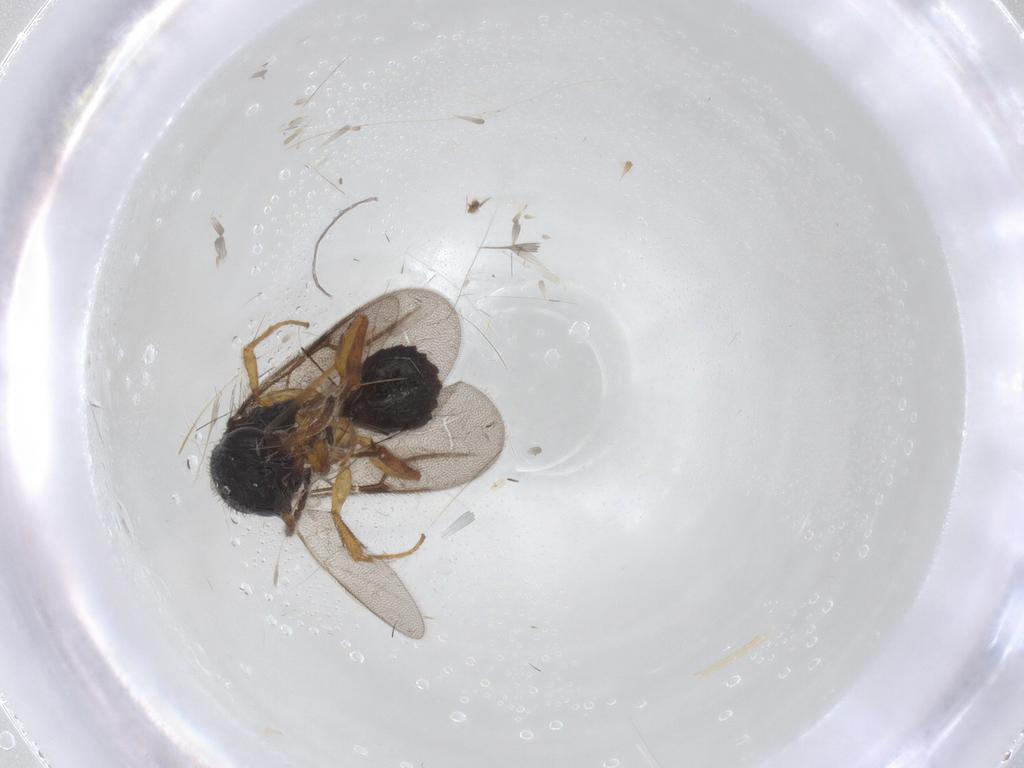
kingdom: Animalia
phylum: Arthropoda
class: Insecta
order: Hymenoptera
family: Bethylidae
